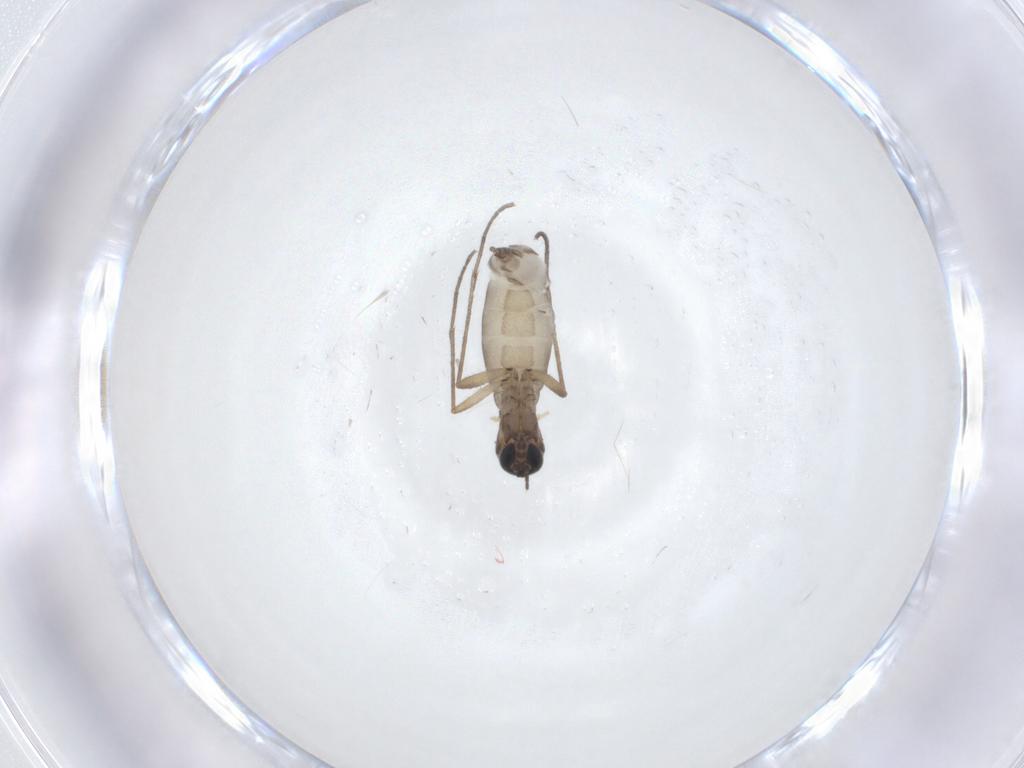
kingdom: Animalia
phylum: Arthropoda
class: Insecta
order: Diptera
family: Sciaridae
